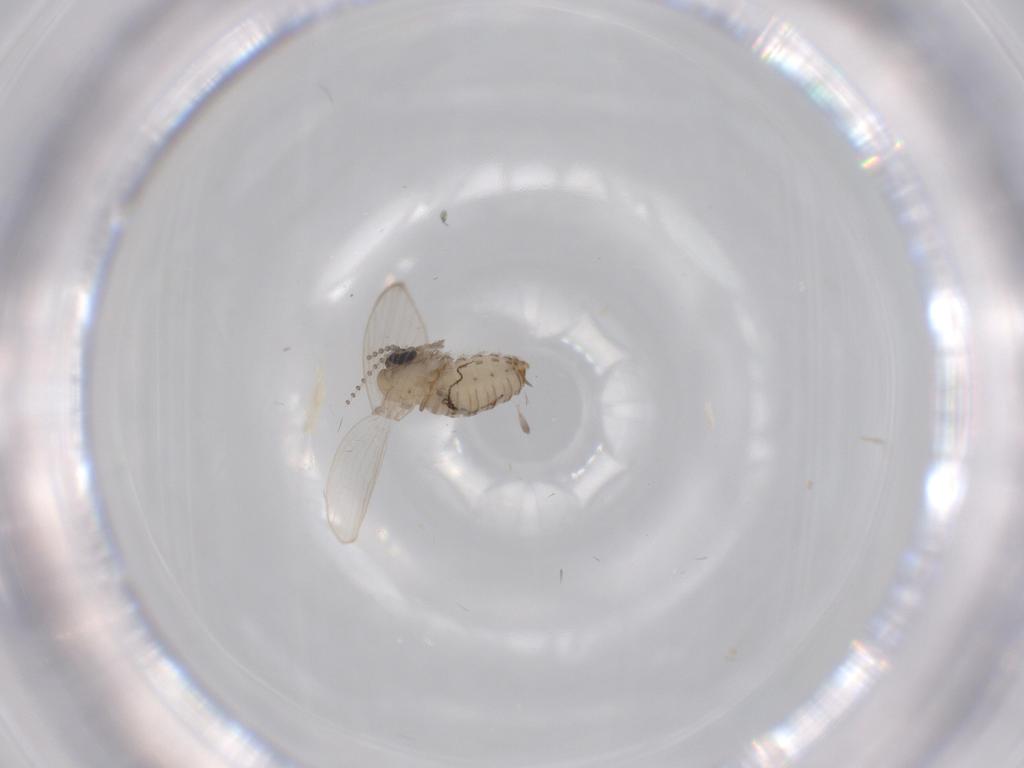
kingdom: Animalia
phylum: Arthropoda
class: Insecta
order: Diptera
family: Psychodidae
